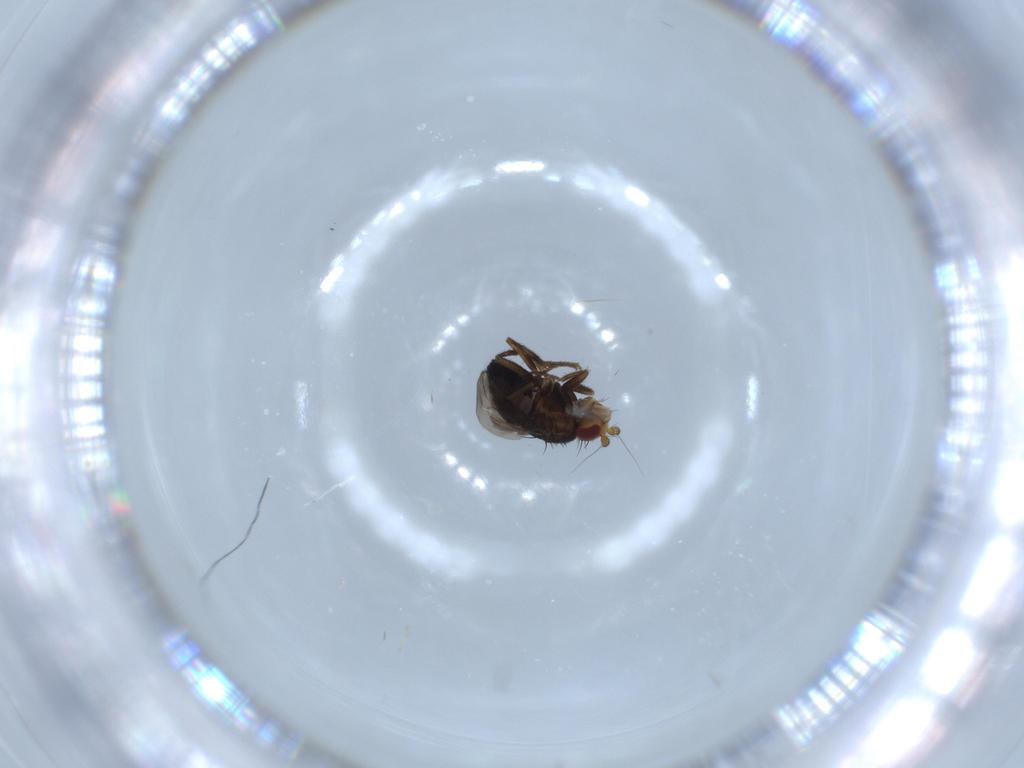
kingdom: Animalia
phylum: Arthropoda
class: Insecta
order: Diptera
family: Sphaeroceridae
